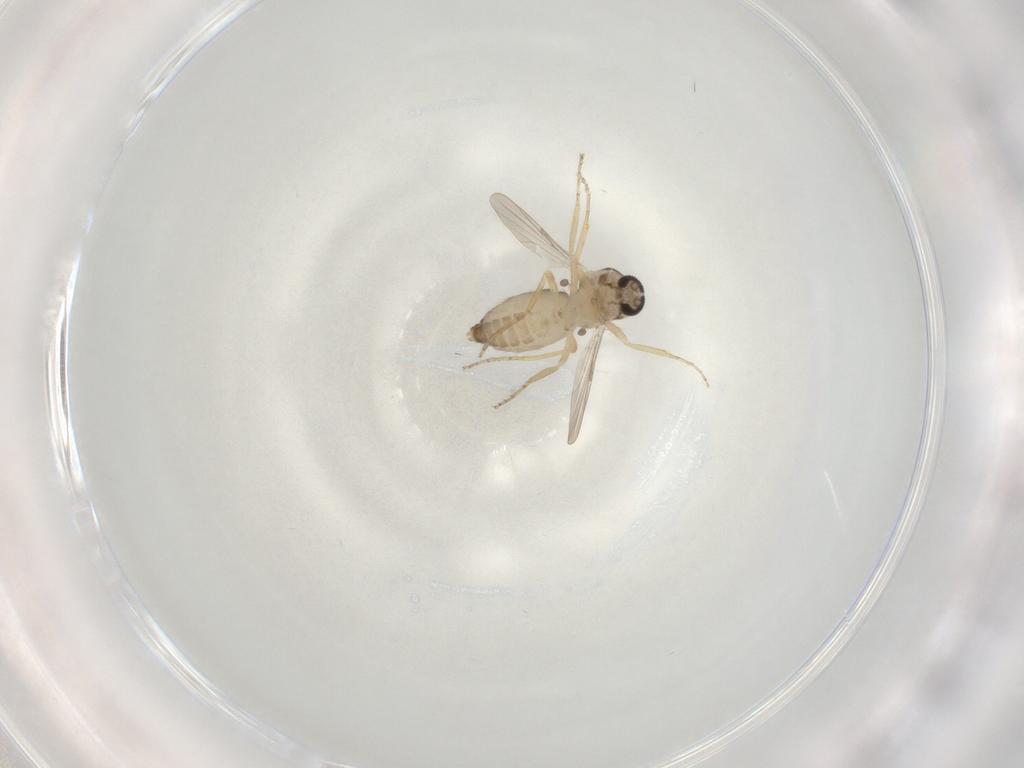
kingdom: Animalia
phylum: Arthropoda
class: Insecta
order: Diptera
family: Ceratopogonidae
